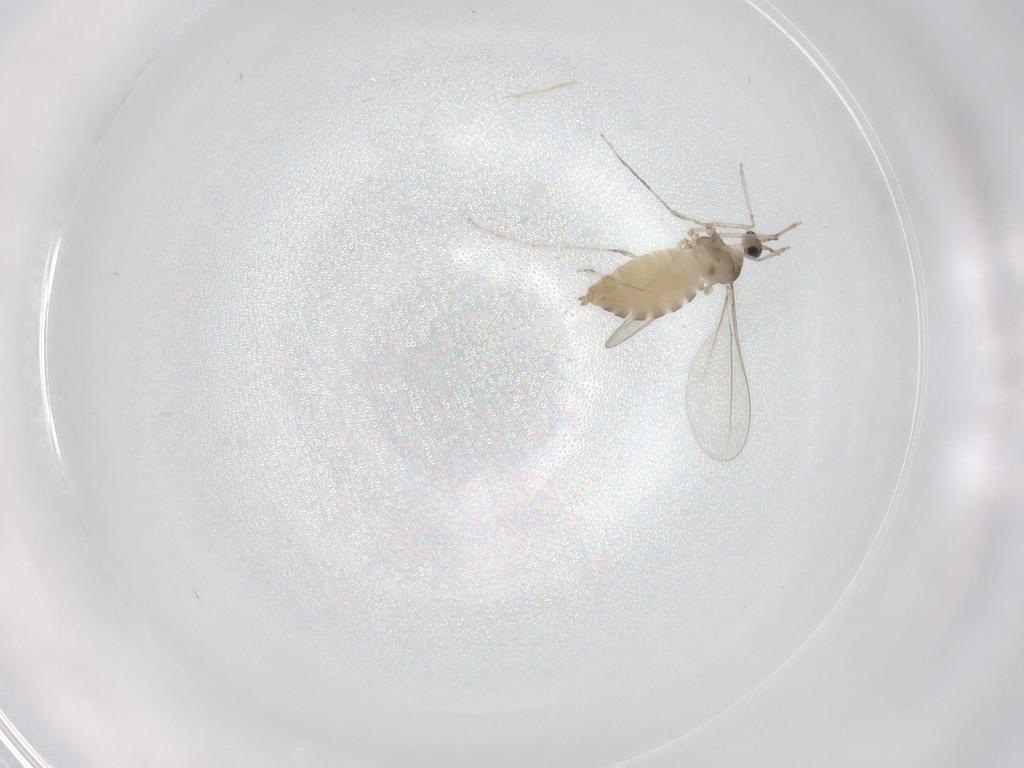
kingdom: Animalia
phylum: Arthropoda
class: Insecta
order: Diptera
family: Cecidomyiidae
